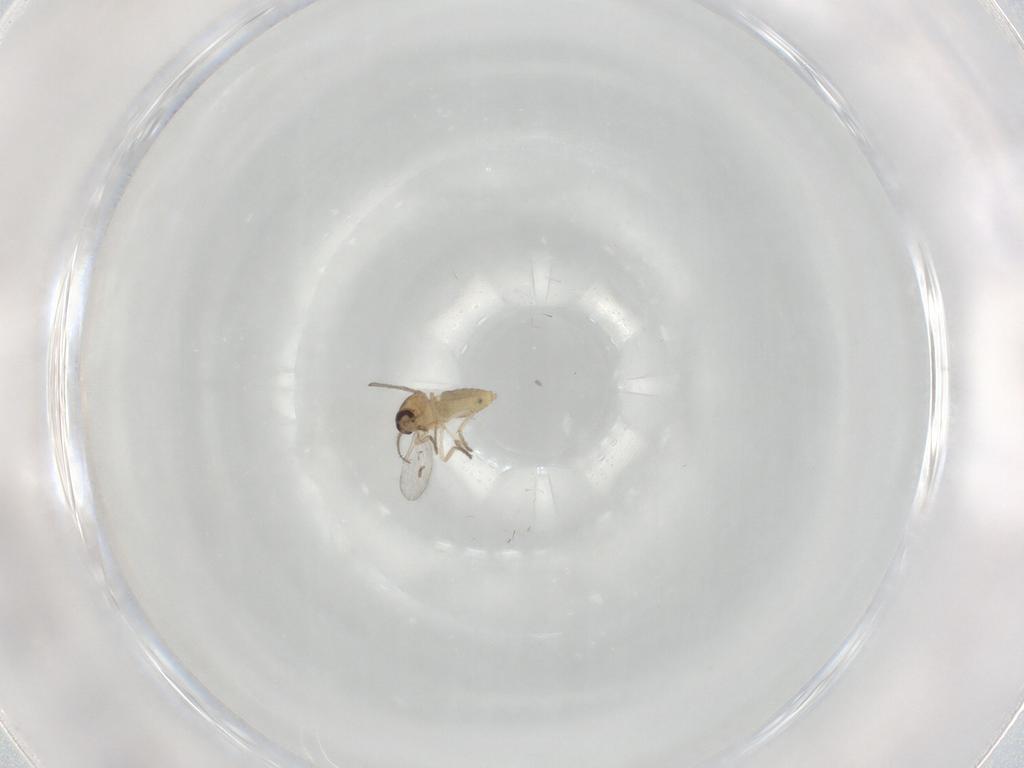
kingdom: Animalia
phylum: Arthropoda
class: Insecta
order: Diptera
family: Ceratopogonidae
